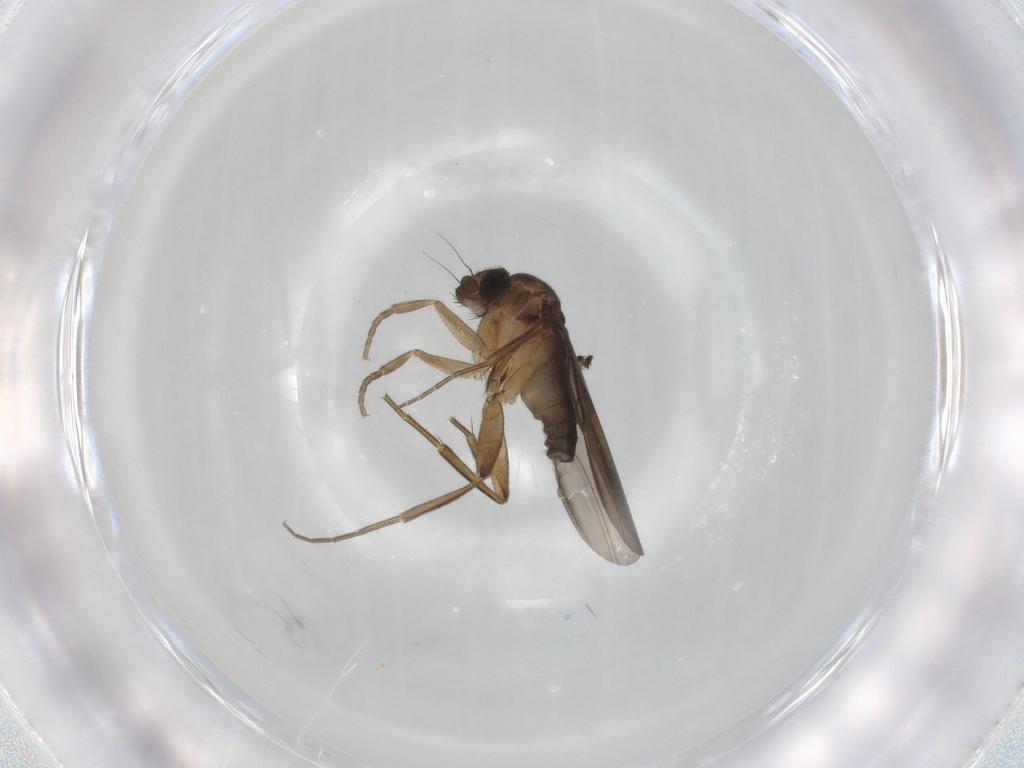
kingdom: Animalia
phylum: Arthropoda
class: Insecta
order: Diptera
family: Phoridae
